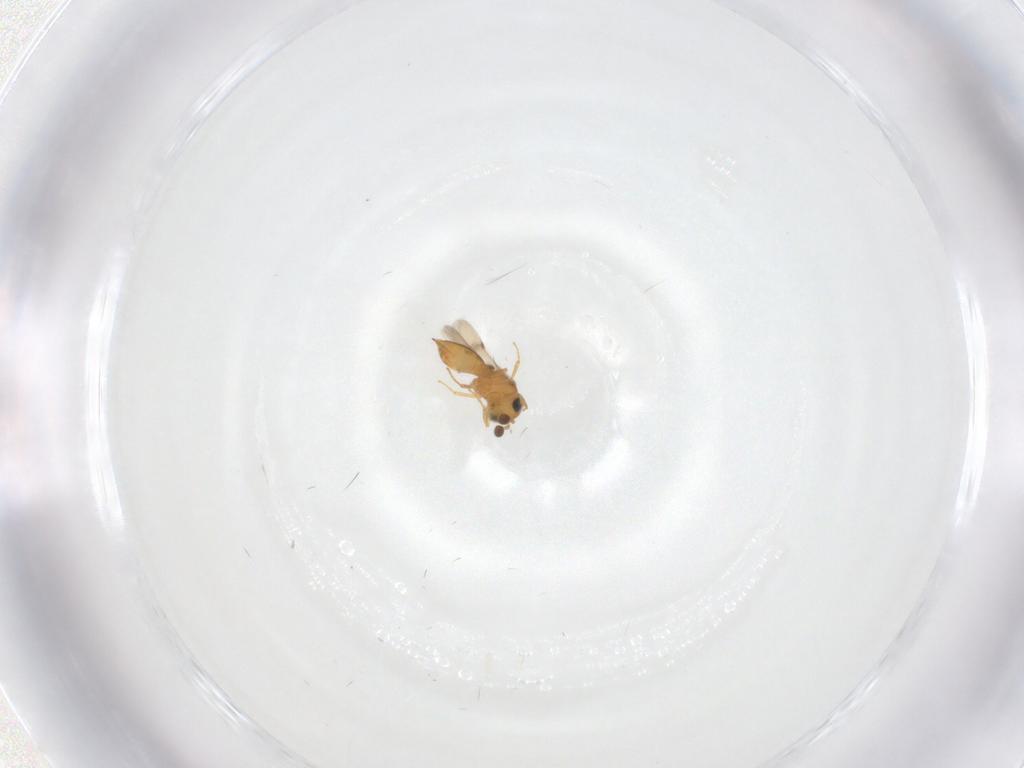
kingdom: Animalia
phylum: Arthropoda
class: Insecta
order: Hymenoptera
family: Scelionidae
